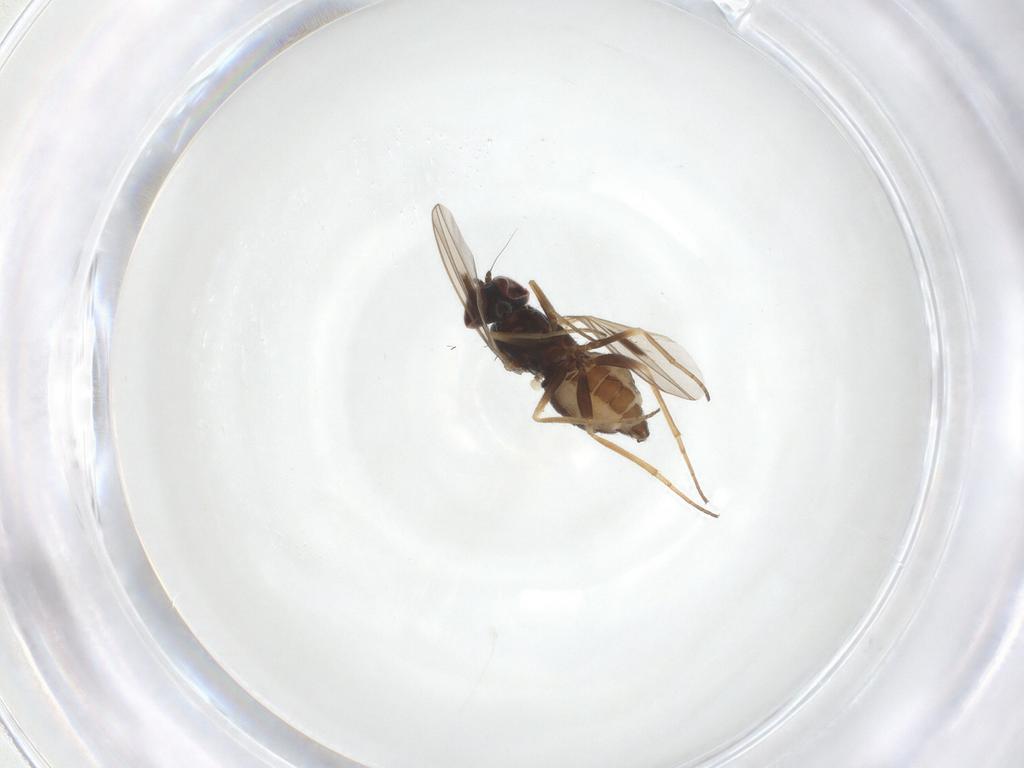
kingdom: Animalia
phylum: Arthropoda
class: Insecta
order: Diptera
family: Dolichopodidae
